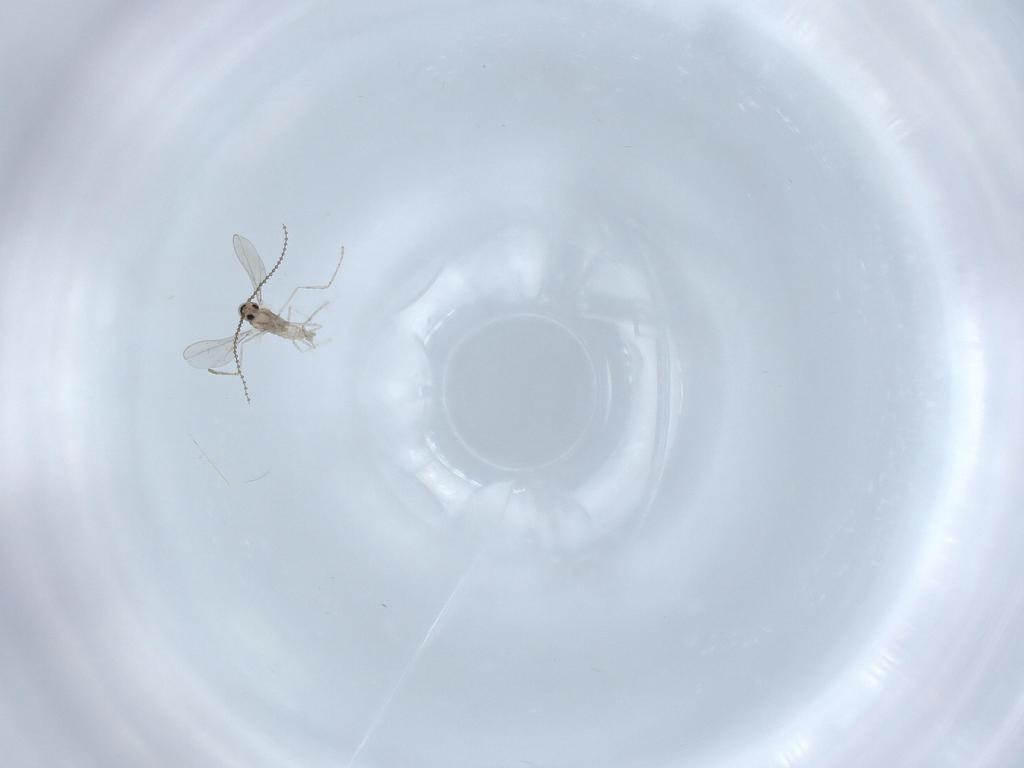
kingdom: Animalia
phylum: Arthropoda
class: Insecta
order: Diptera
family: Cecidomyiidae
